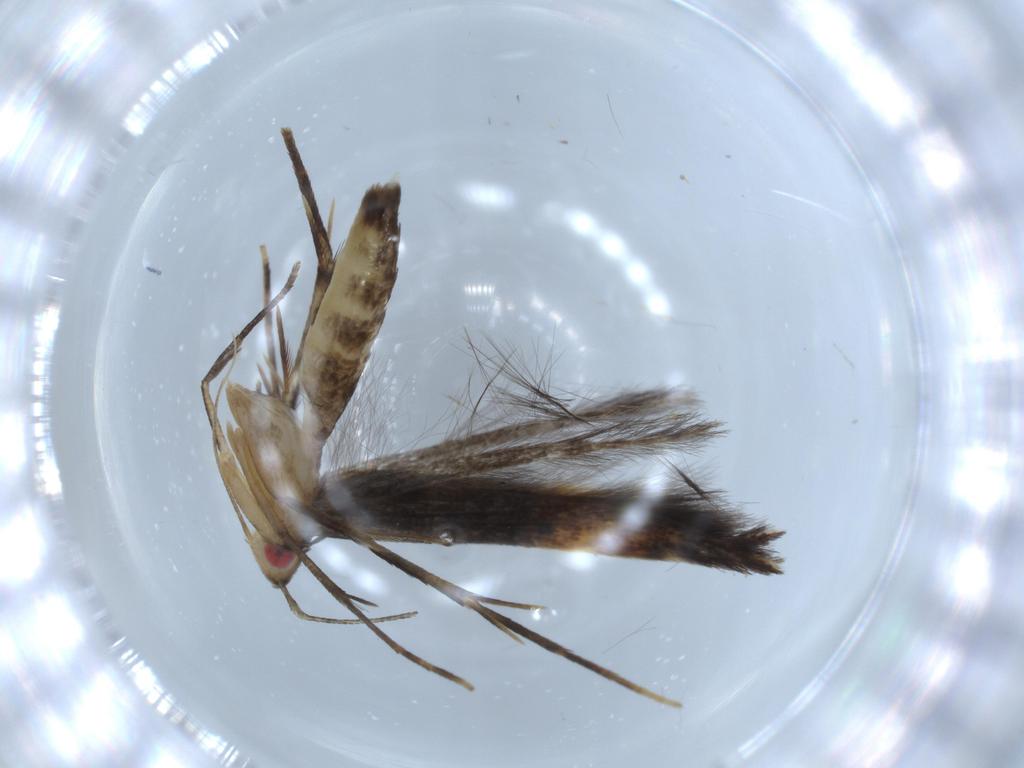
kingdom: Animalia
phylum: Arthropoda
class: Insecta
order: Lepidoptera
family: Cosmopterigidae
